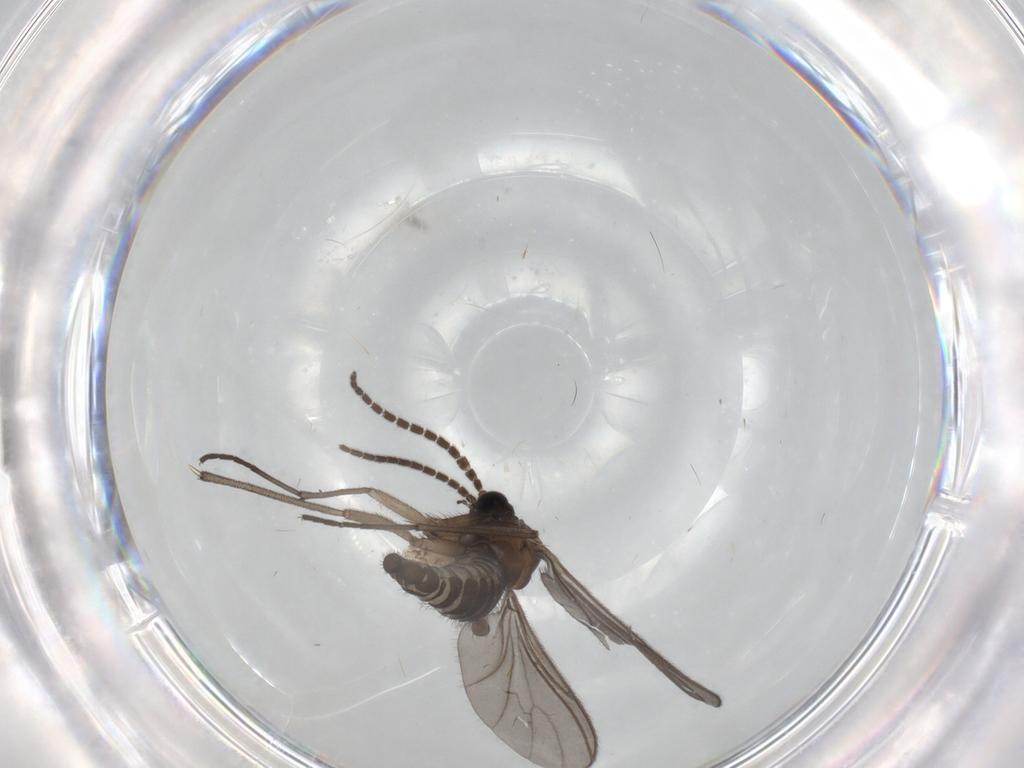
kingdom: Animalia
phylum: Arthropoda
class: Insecta
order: Diptera
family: Sciaridae
